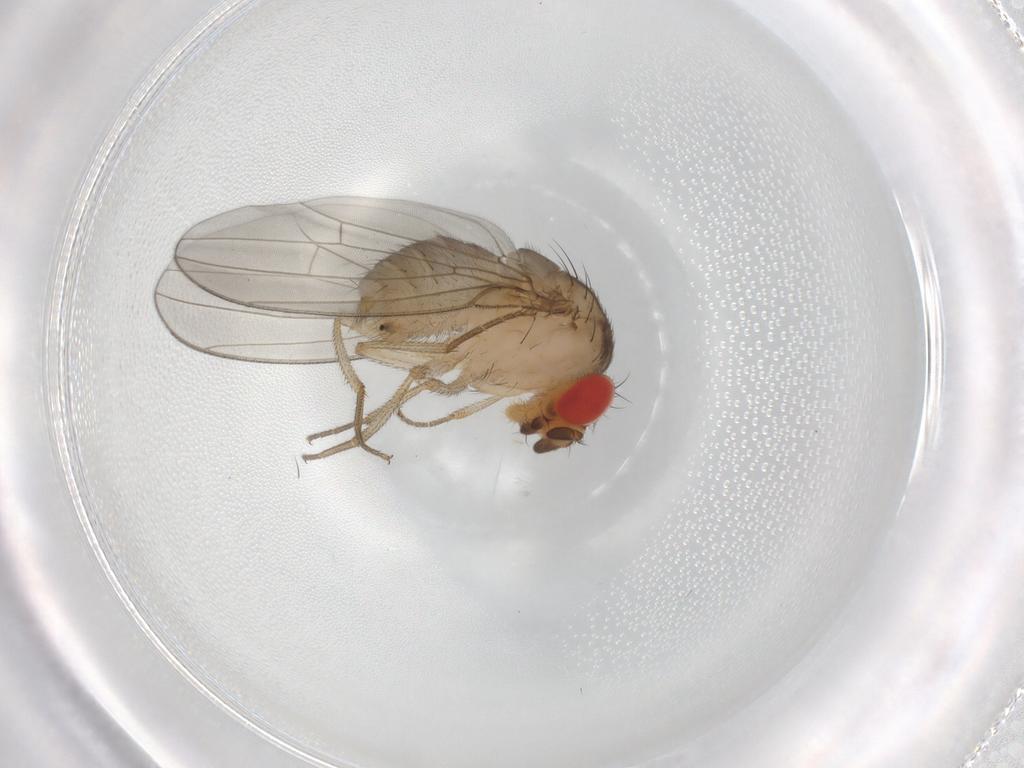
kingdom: Animalia
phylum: Arthropoda
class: Insecta
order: Diptera
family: Drosophilidae
